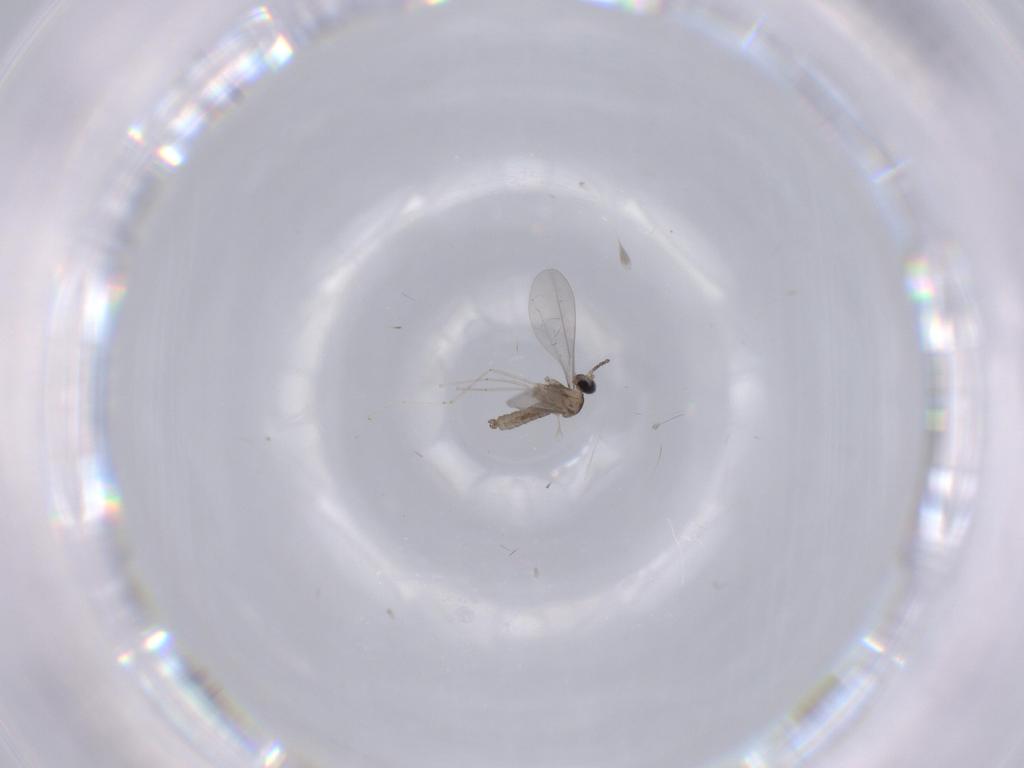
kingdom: Animalia
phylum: Arthropoda
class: Insecta
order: Diptera
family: Cecidomyiidae
